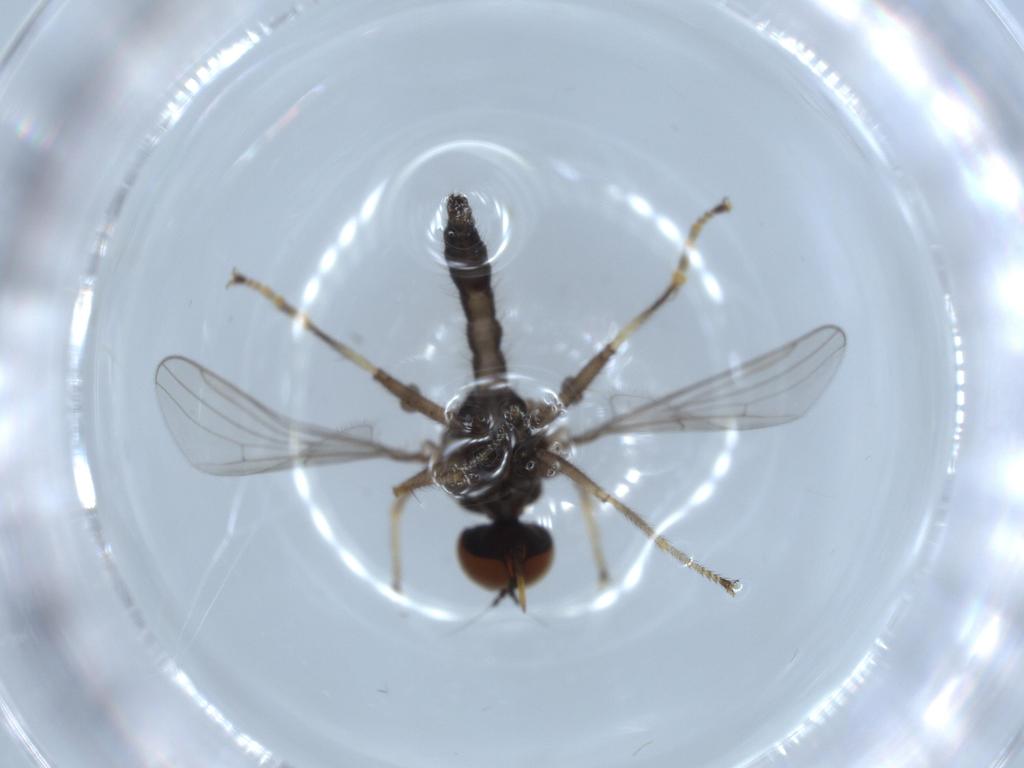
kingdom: Animalia
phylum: Arthropoda
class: Insecta
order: Diptera
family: Hybotidae
